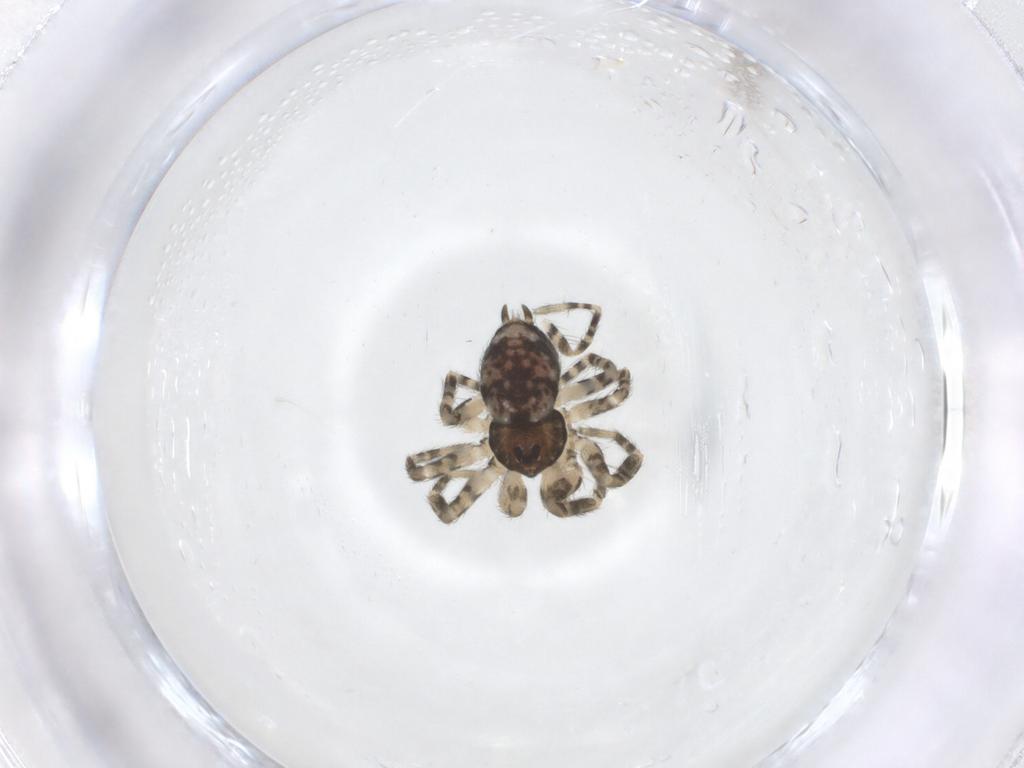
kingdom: Animalia
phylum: Arthropoda
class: Arachnida
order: Araneae
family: Oecobiidae
